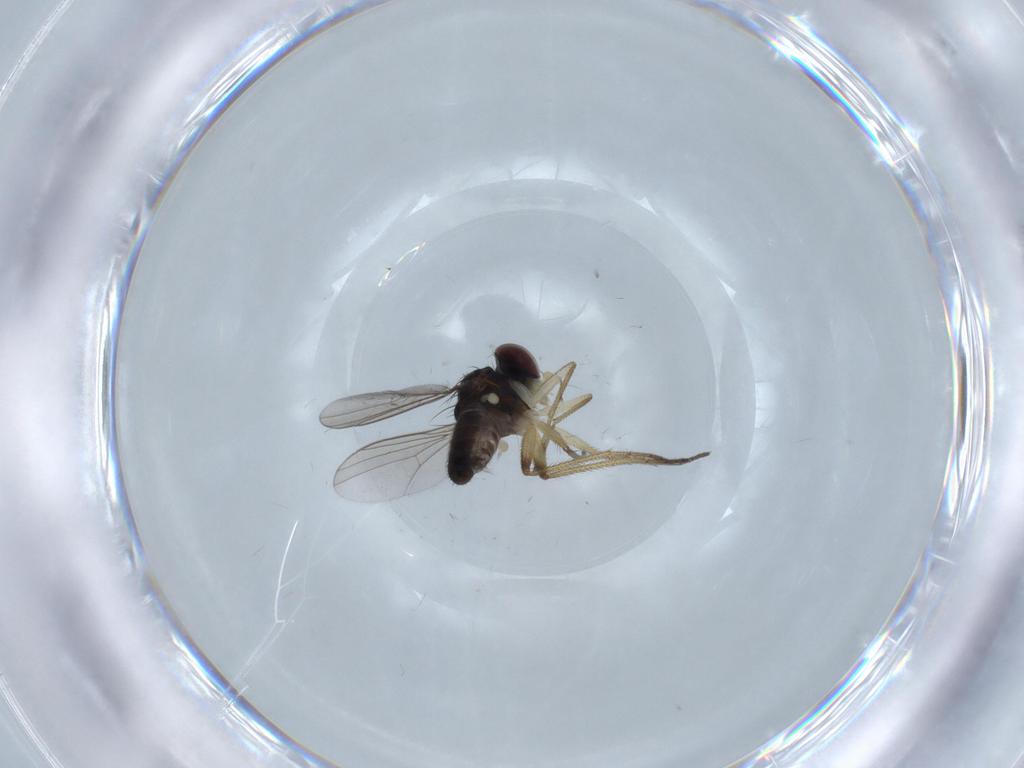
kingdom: Animalia
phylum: Arthropoda
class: Insecta
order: Diptera
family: Dolichopodidae
